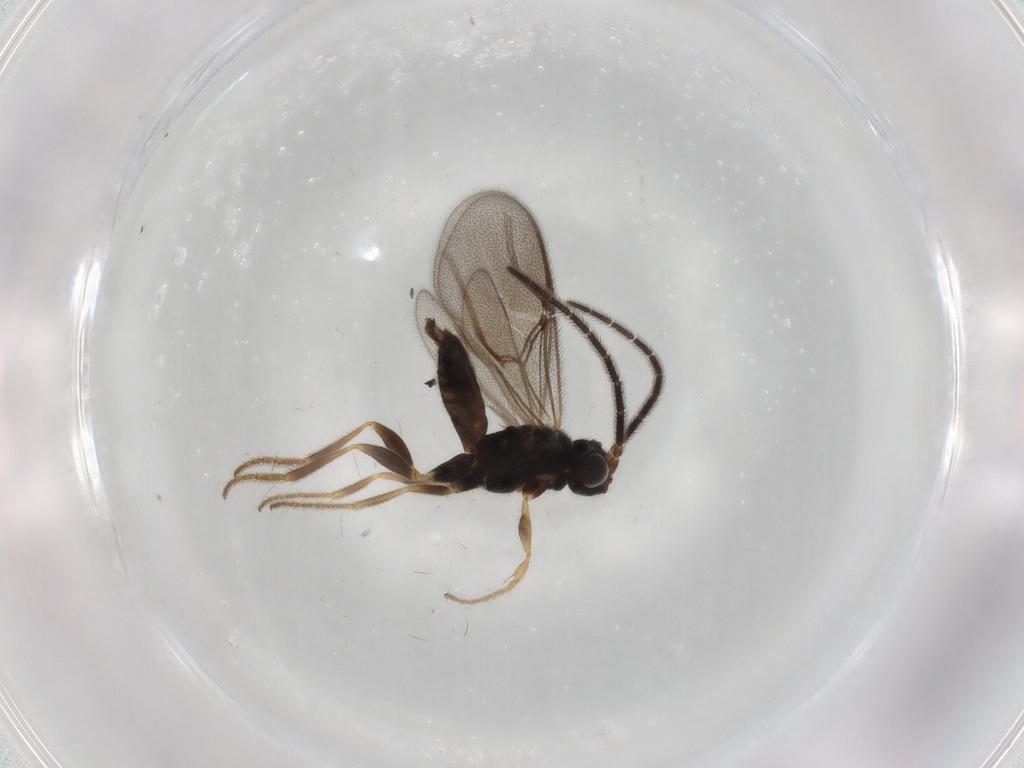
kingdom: Animalia
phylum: Arthropoda
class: Insecta
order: Hymenoptera
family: Dryinidae
